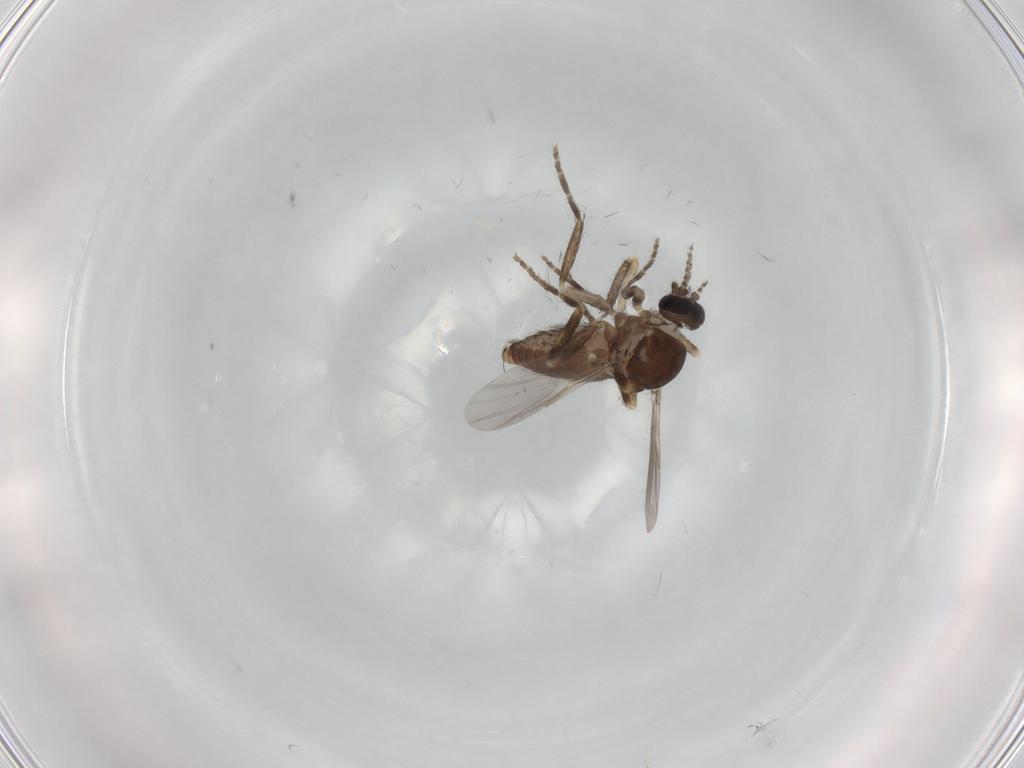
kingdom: Animalia
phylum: Arthropoda
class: Insecta
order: Diptera
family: Ceratopogonidae
